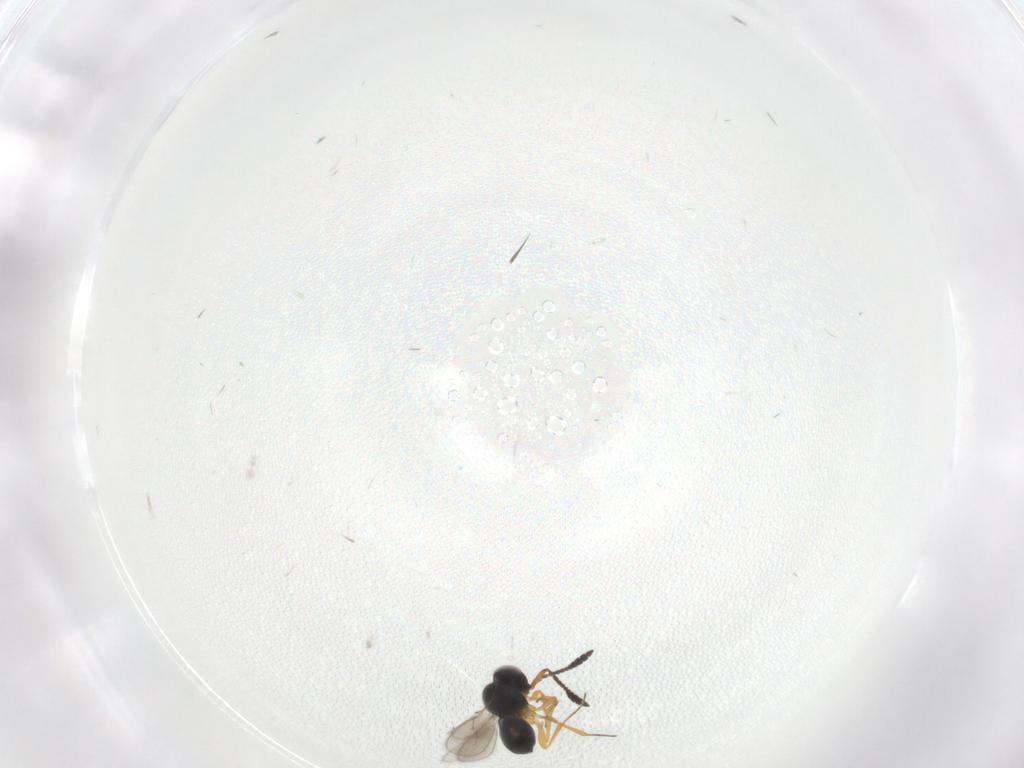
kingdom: Animalia
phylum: Arthropoda
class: Insecta
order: Hymenoptera
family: Scelionidae
